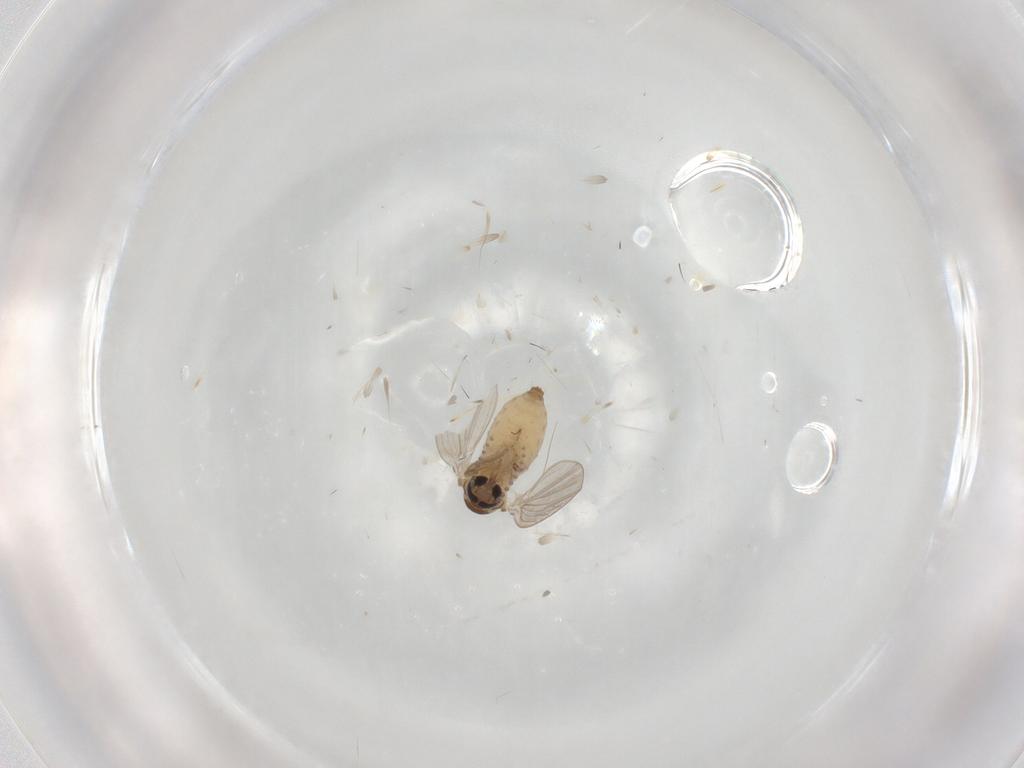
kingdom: Animalia
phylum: Arthropoda
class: Insecta
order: Diptera
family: Psychodidae
